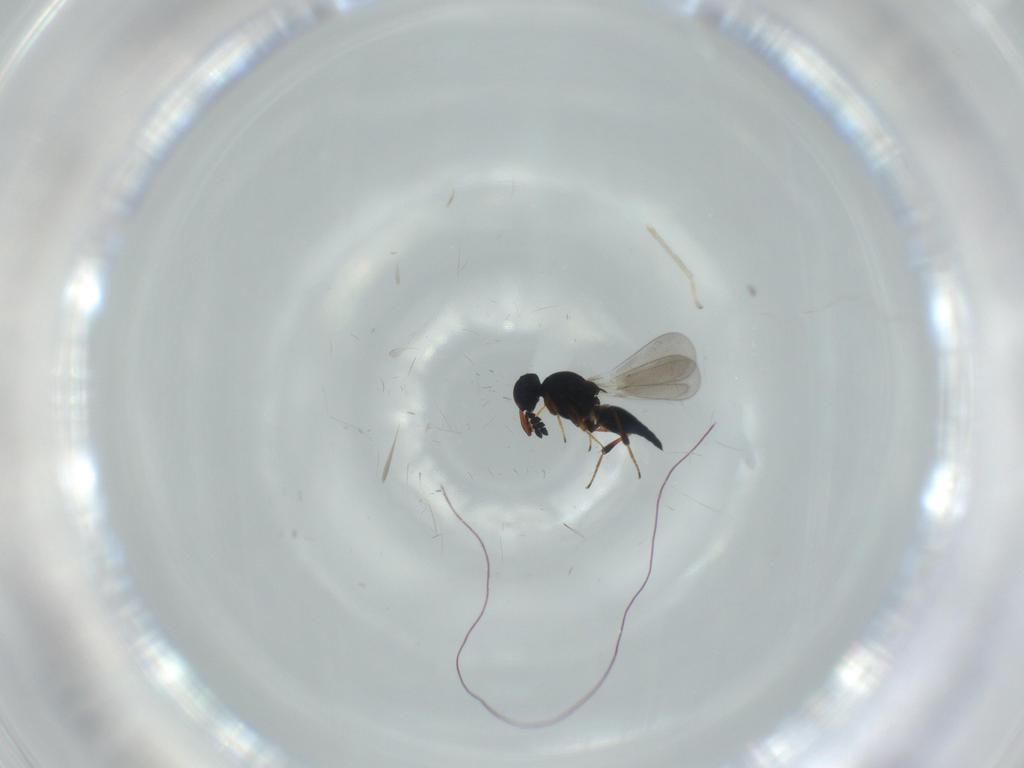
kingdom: Animalia
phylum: Arthropoda
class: Insecta
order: Hymenoptera
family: Platygastridae
